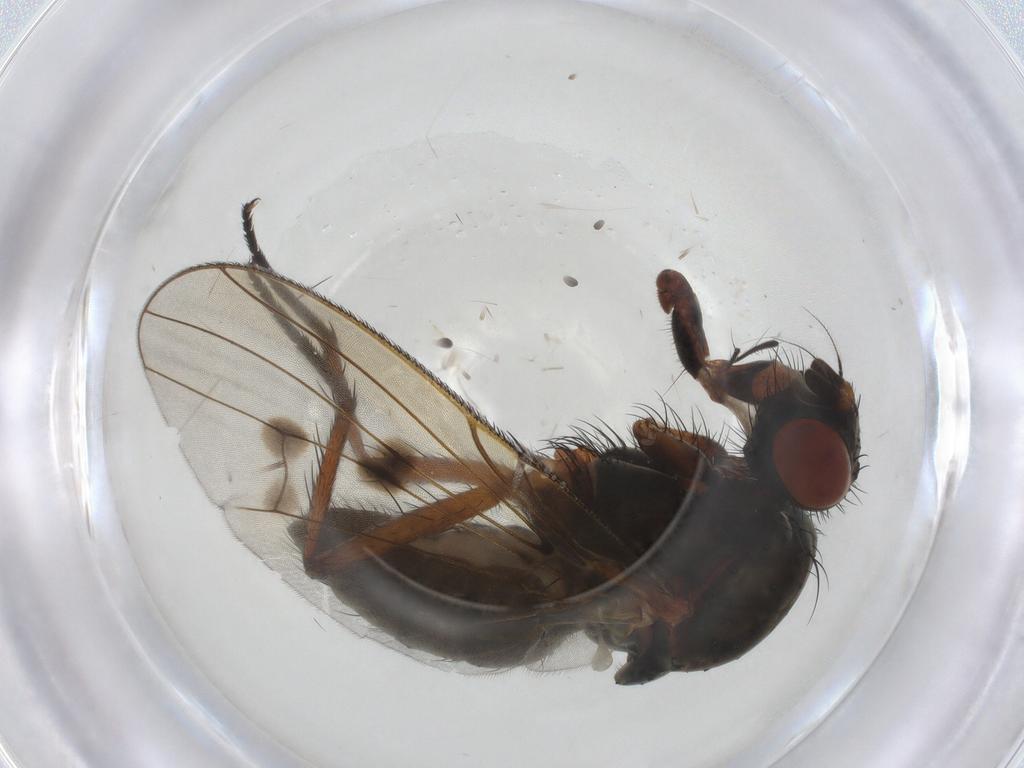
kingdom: Animalia
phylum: Arthropoda
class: Insecta
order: Diptera
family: Anthomyiidae
